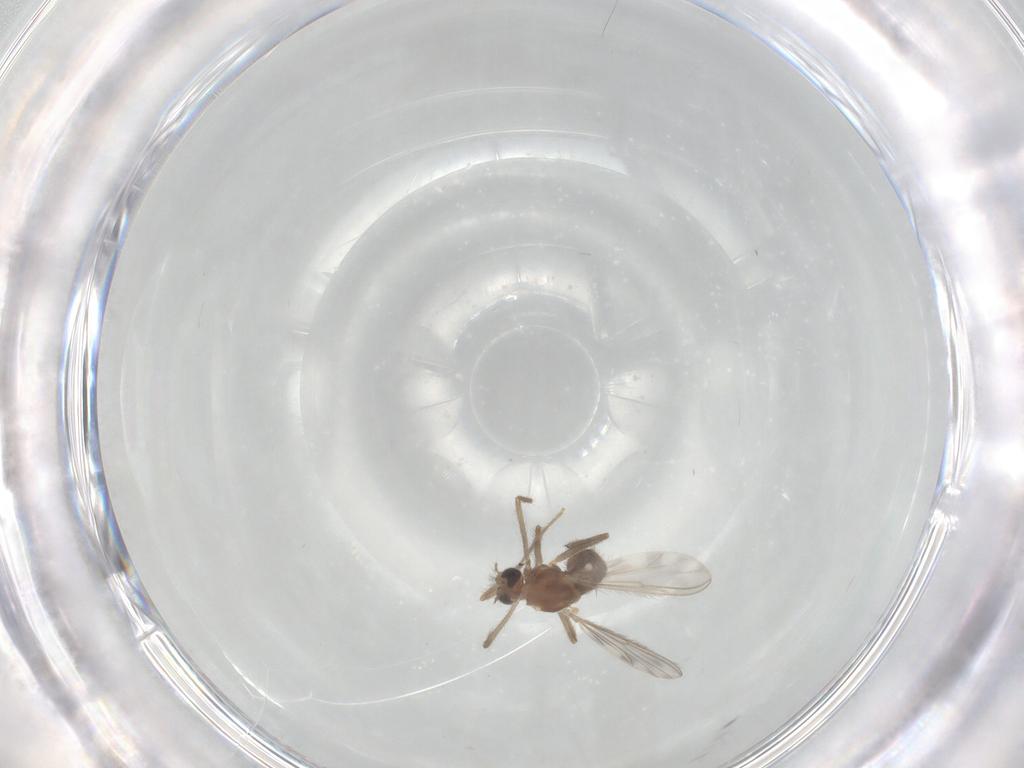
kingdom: Animalia
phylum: Arthropoda
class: Insecta
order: Diptera
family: Chironomidae
